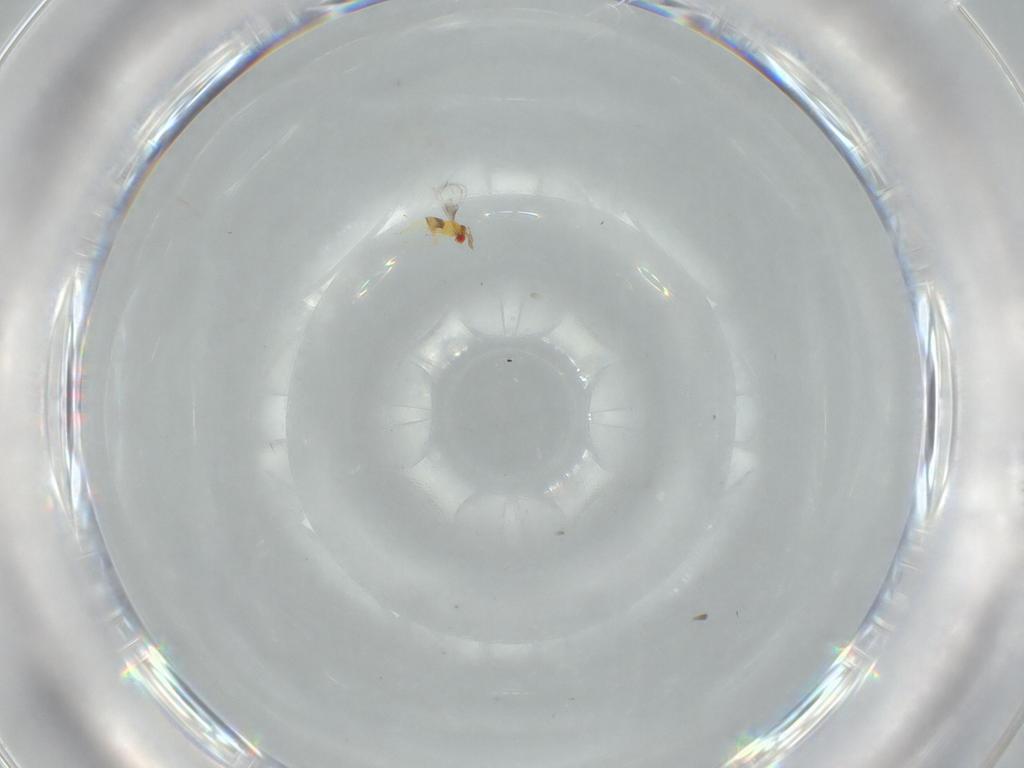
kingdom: Animalia
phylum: Arthropoda
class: Insecta
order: Hymenoptera
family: Trichogrammatidae
